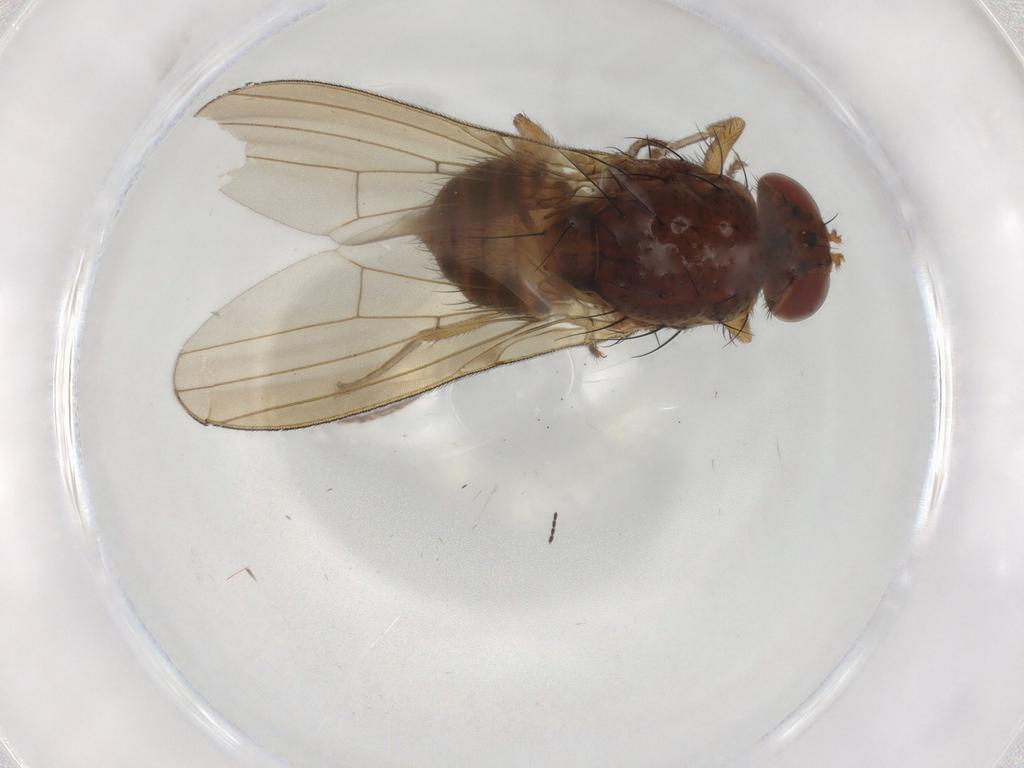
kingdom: Animalia
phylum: Arthropoda
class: Insecta
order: Diptera
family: Lauxaniidae
